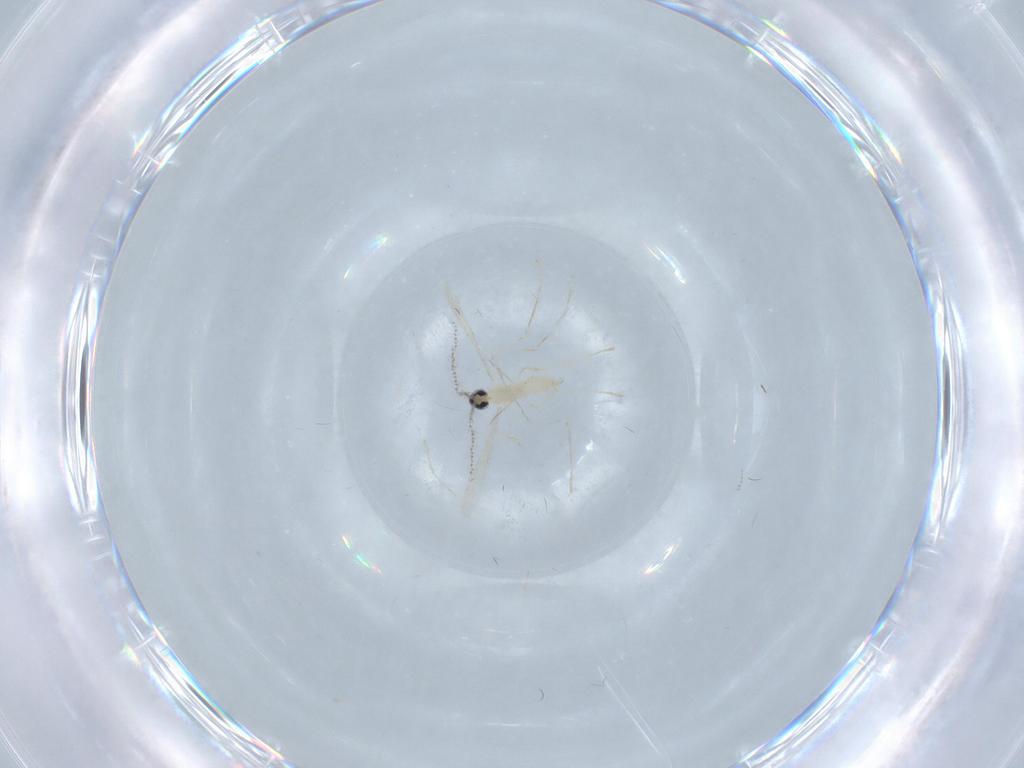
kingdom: Animalia
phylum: Arthropoda
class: Insecta
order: Diptera
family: Cecidomyiidae
